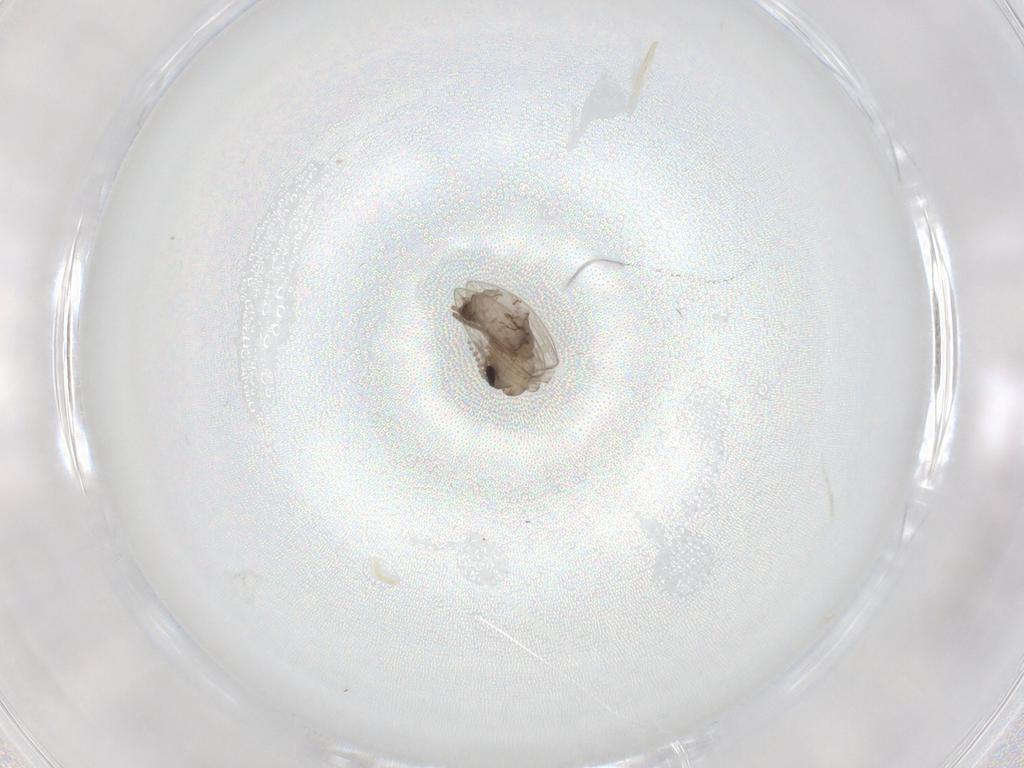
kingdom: Animalia
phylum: Arthropoda
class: Insecta
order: Diptera
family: Psychodidae
